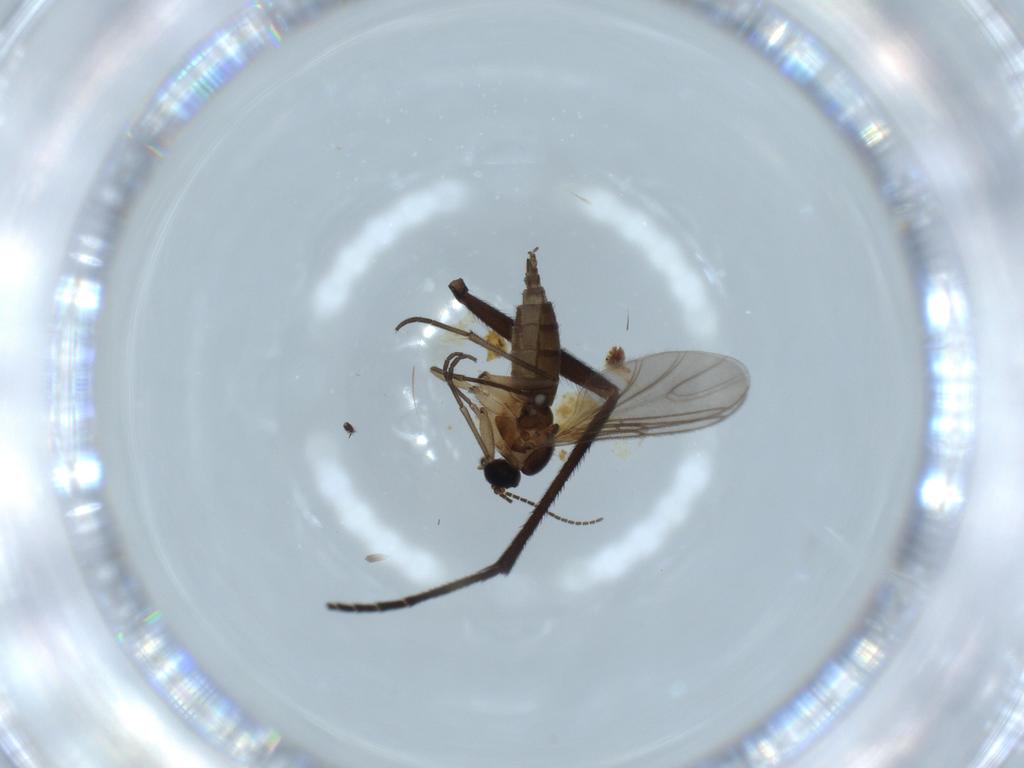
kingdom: Animalia
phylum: Arthropoda
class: Insecta
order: Diptera
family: Sciaridae
